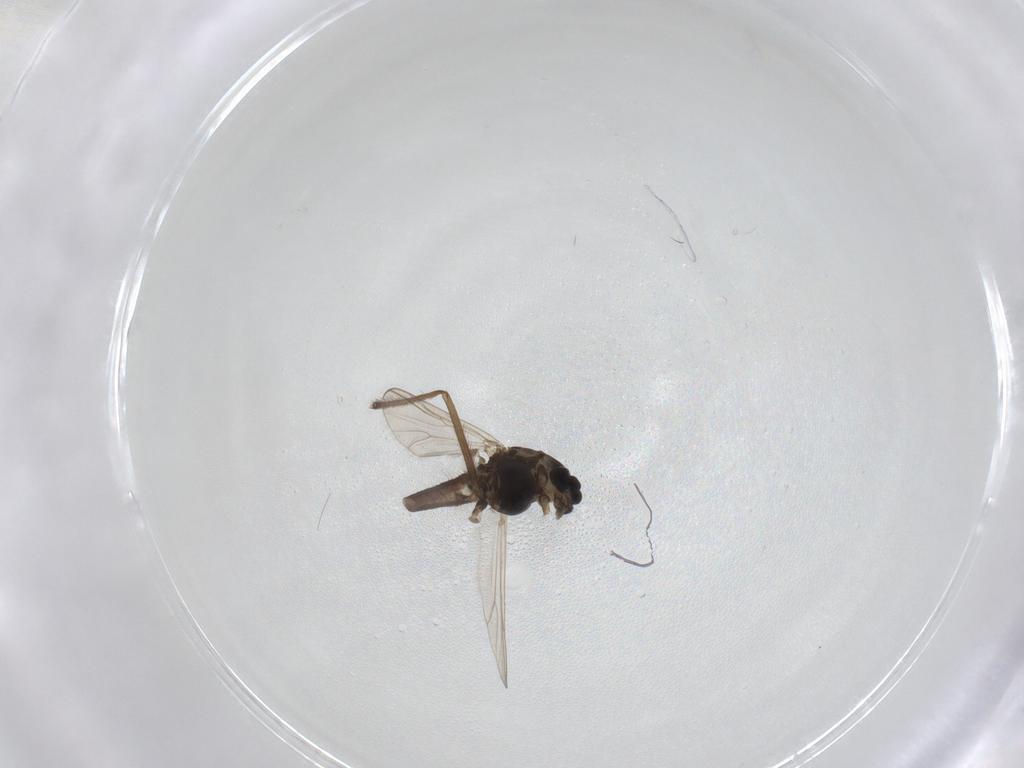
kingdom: Animalia
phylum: Arthropoda
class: Insecta
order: Diptera
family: Chironomidae
